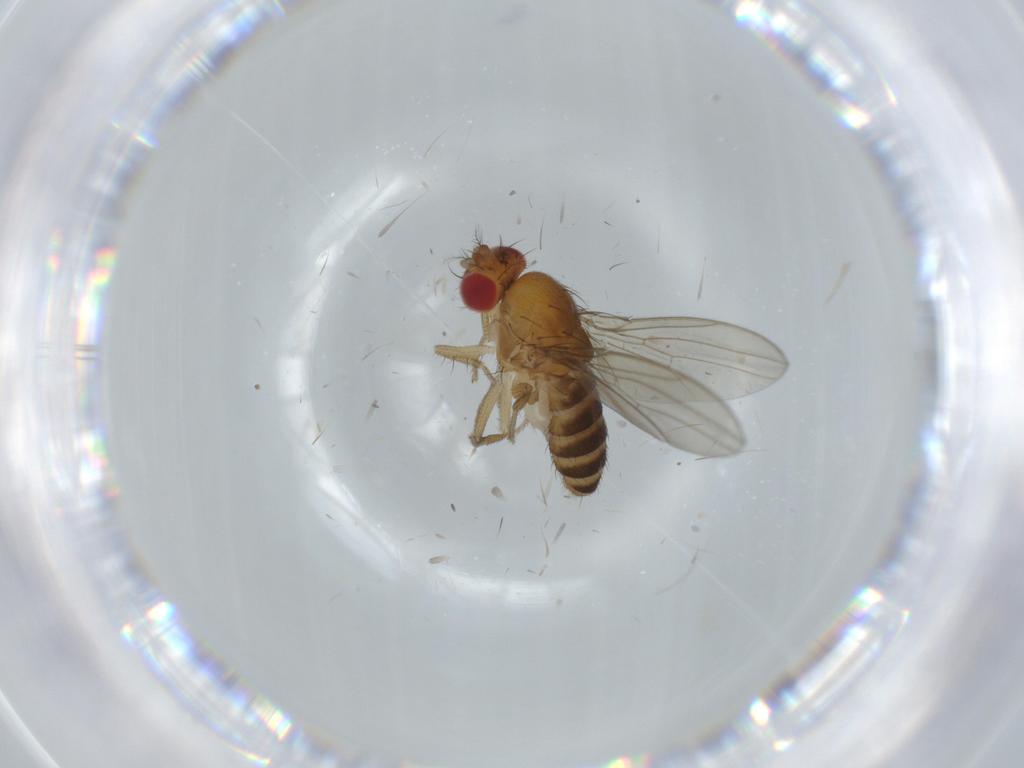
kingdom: Animalia
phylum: Arthropoda
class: Insecta
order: Diptera
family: Drosophilidae
